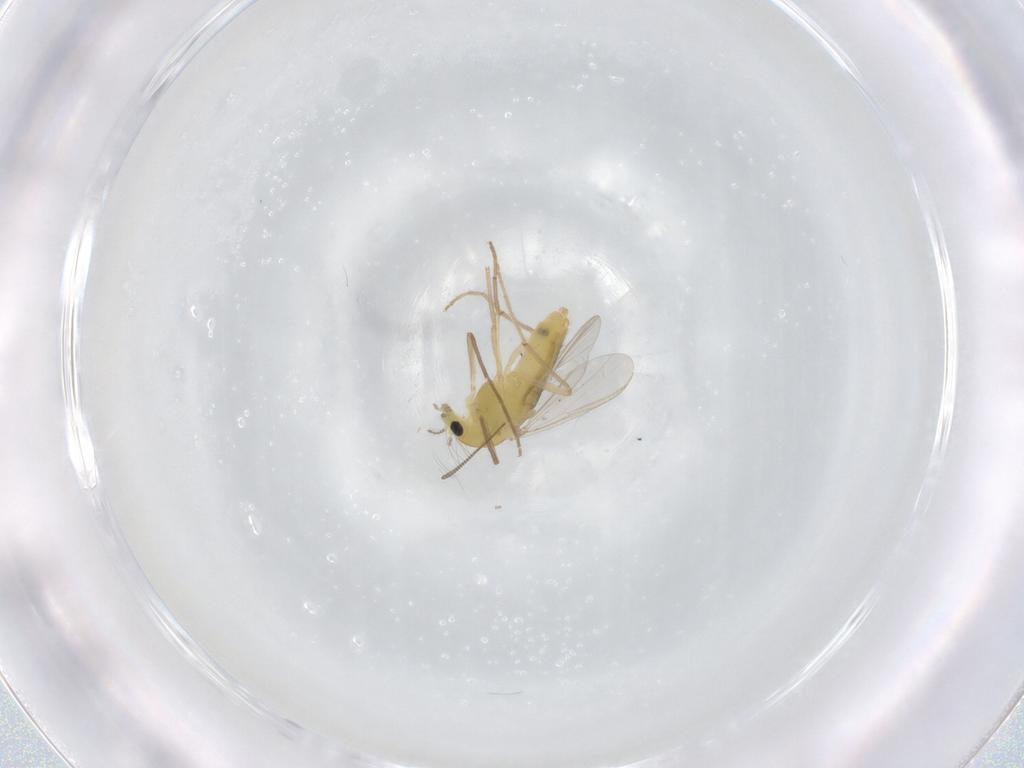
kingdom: Animalia
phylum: Arthropoda
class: Insecta
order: Diptera
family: Chironomidae
